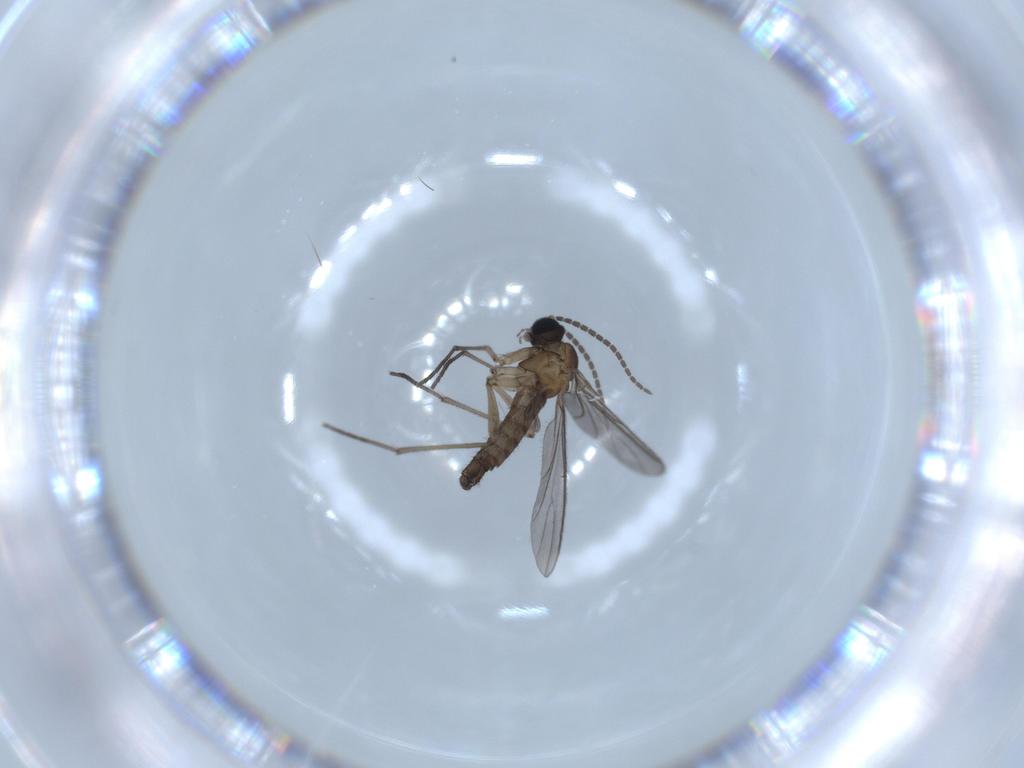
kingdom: Animalia
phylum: Arthropoda
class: Insecta
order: Diptera
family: Sciaridae
